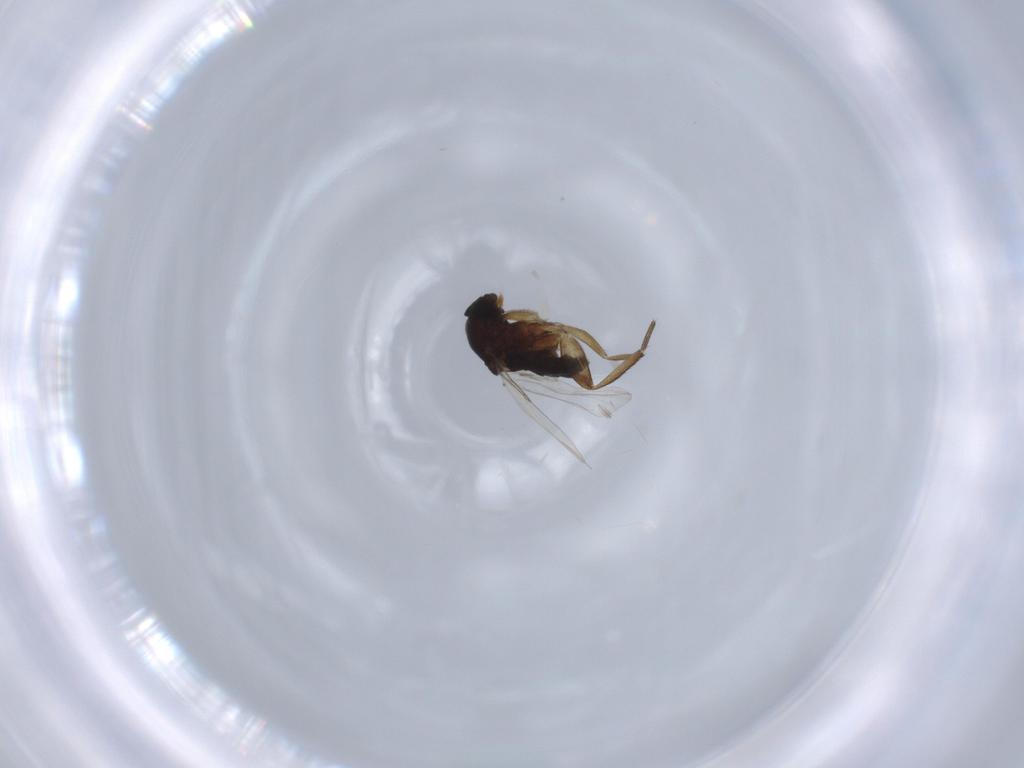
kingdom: Animalia
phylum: Arthropoda
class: Insecta
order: Diptera
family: Phoridae
